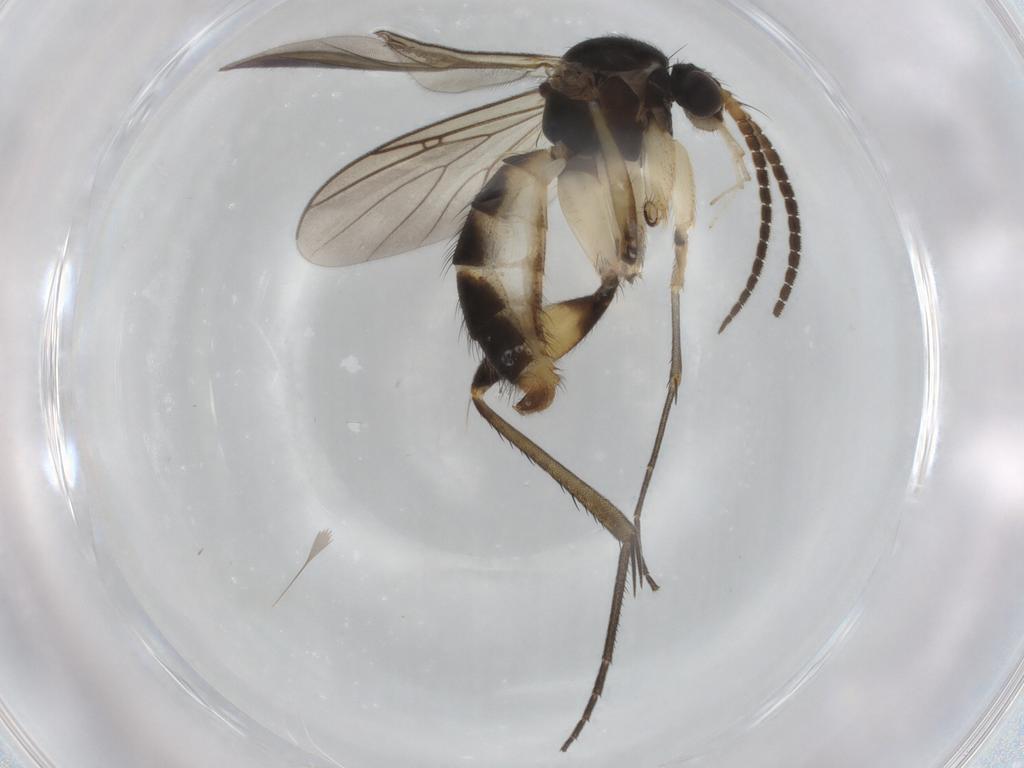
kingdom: Animalia
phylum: Arthropoda
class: Insecta
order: Diptera
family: Limoniidae
